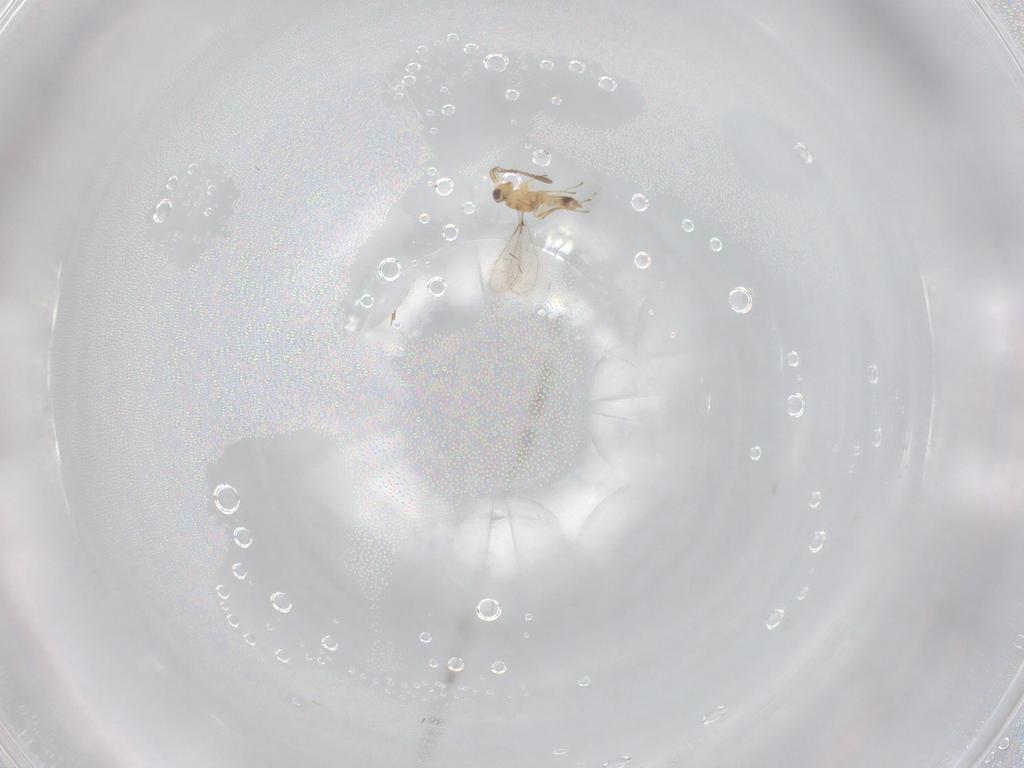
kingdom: Animalia
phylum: Arthropoda
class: Insecta
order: Hymenoptera
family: Mymaridae
